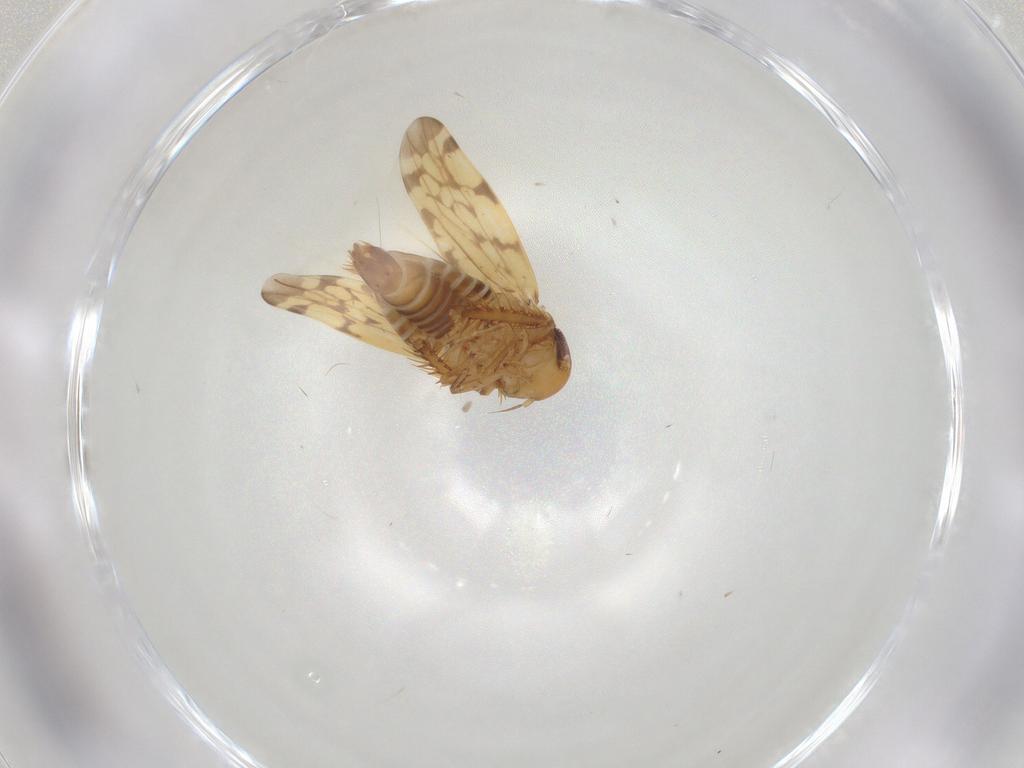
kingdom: Animalia
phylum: Arthropoda
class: Insecta
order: Hemiptera
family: Cicadellidae
